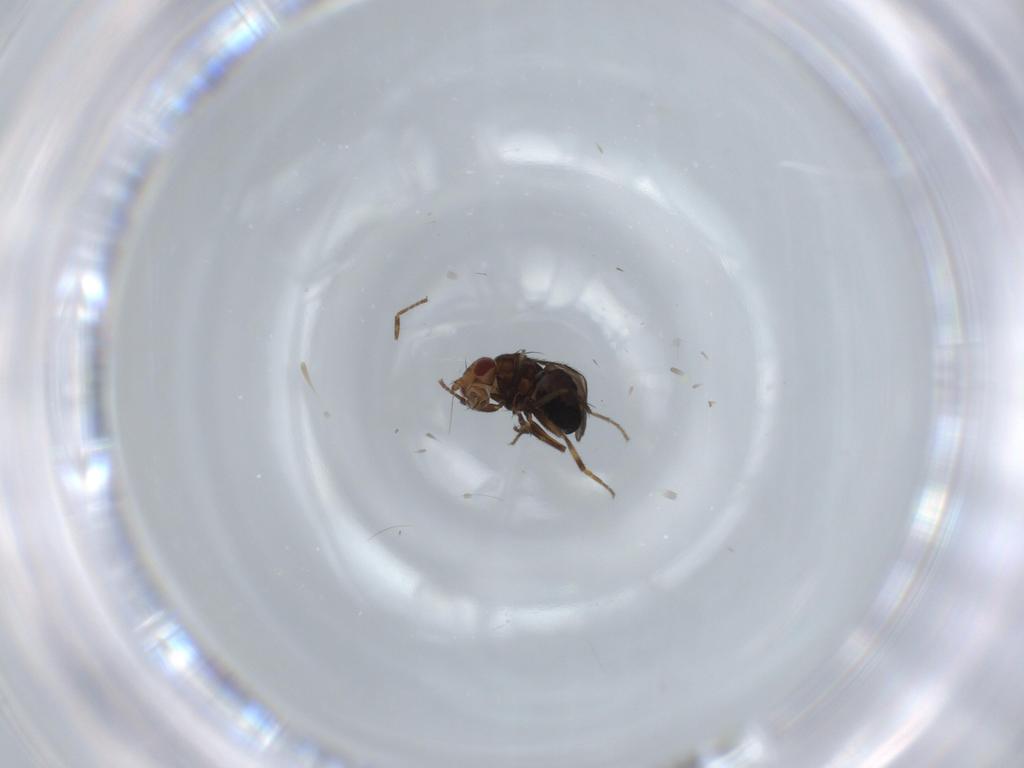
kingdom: Animalia
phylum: Arthropoda
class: Insecta
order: Diptera
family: Sphaeroceridae
